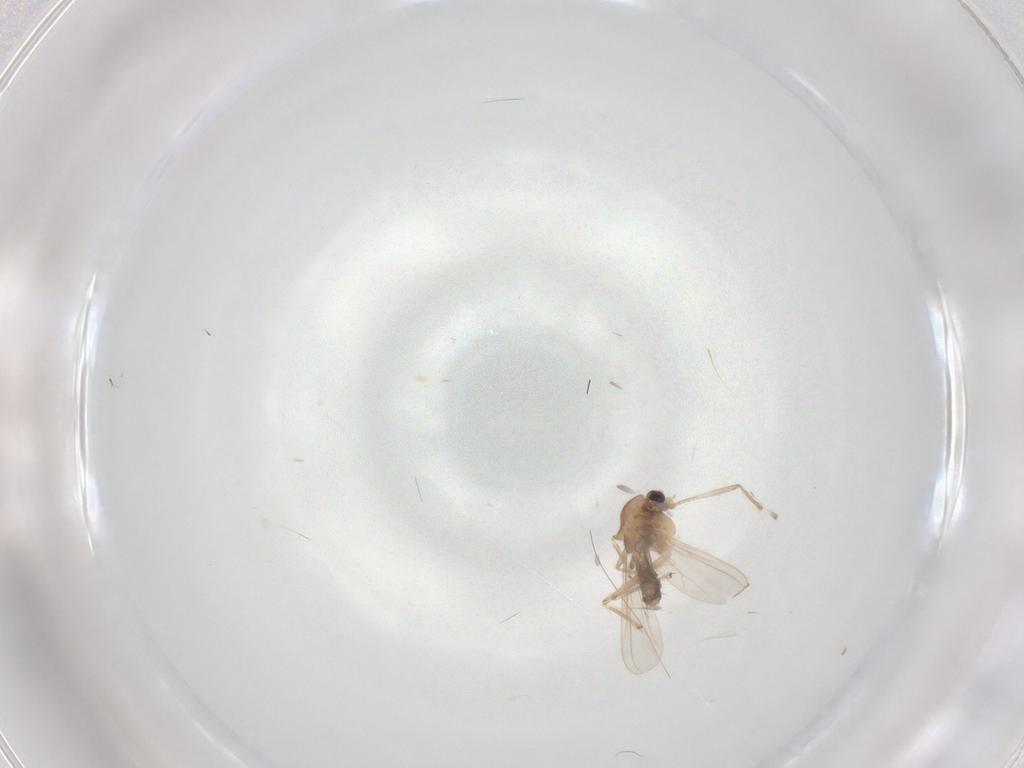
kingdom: Animalia
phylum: Arthropoda
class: Insecta
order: Diptera
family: Chironomidae
